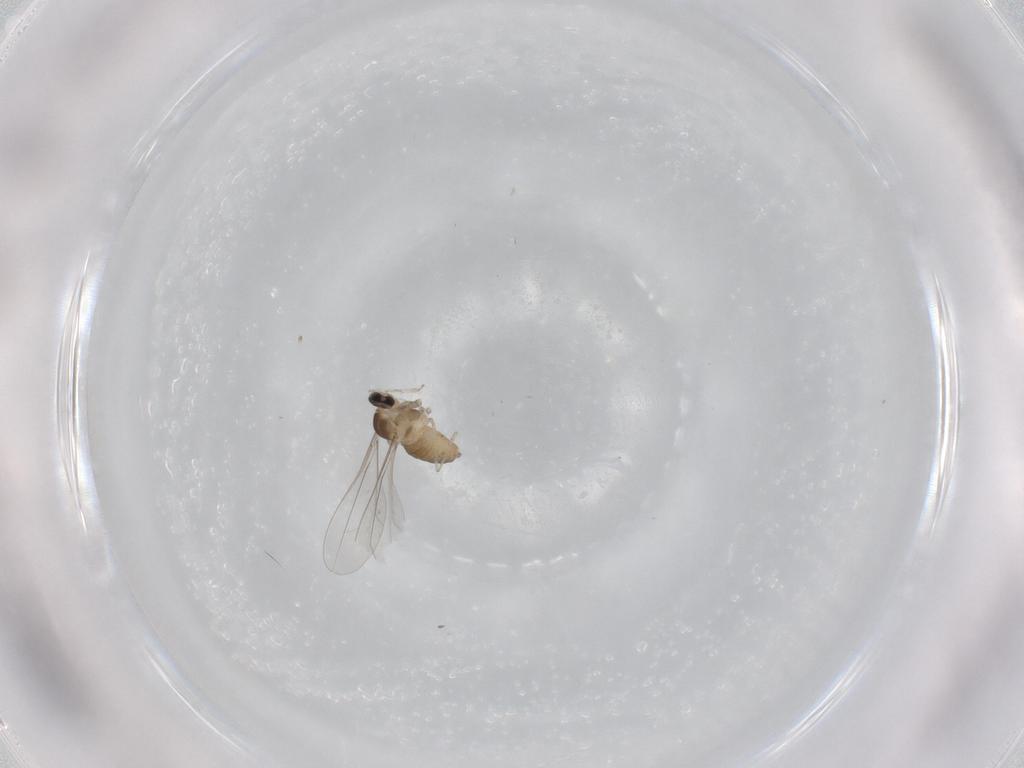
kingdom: Animalia
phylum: Arthropoda
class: Insecta
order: Diptera
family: Cecidomyiidae
